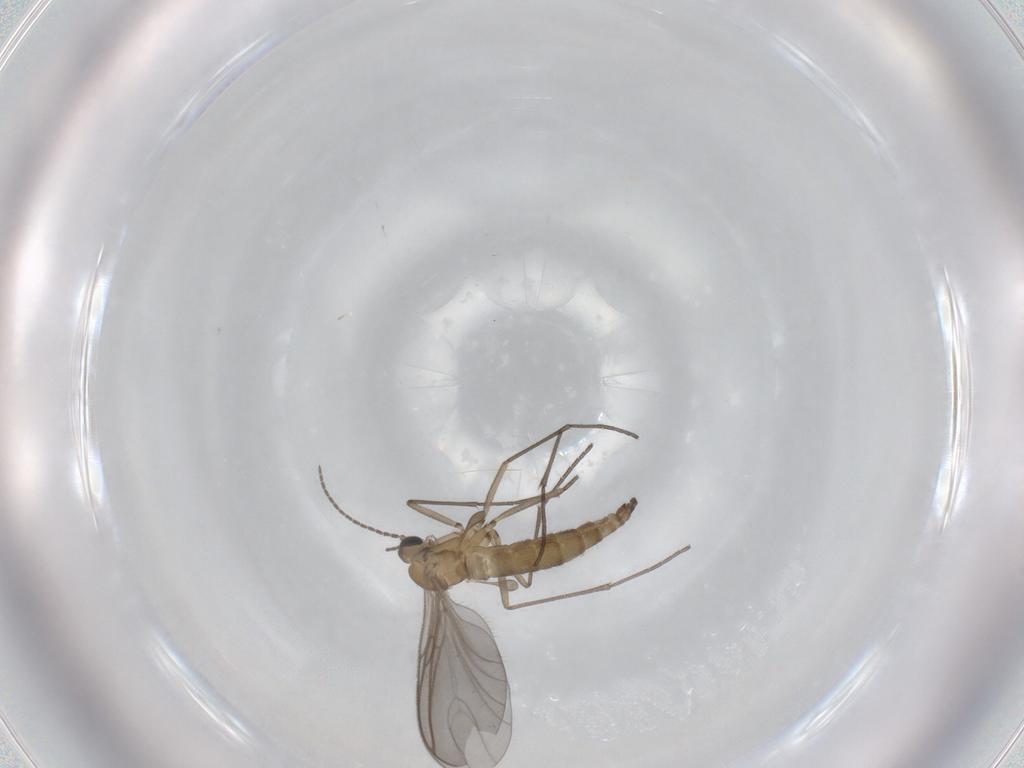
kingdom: Animalia
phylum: Arthropoda
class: Insecta
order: Diptera
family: Sciaridae
